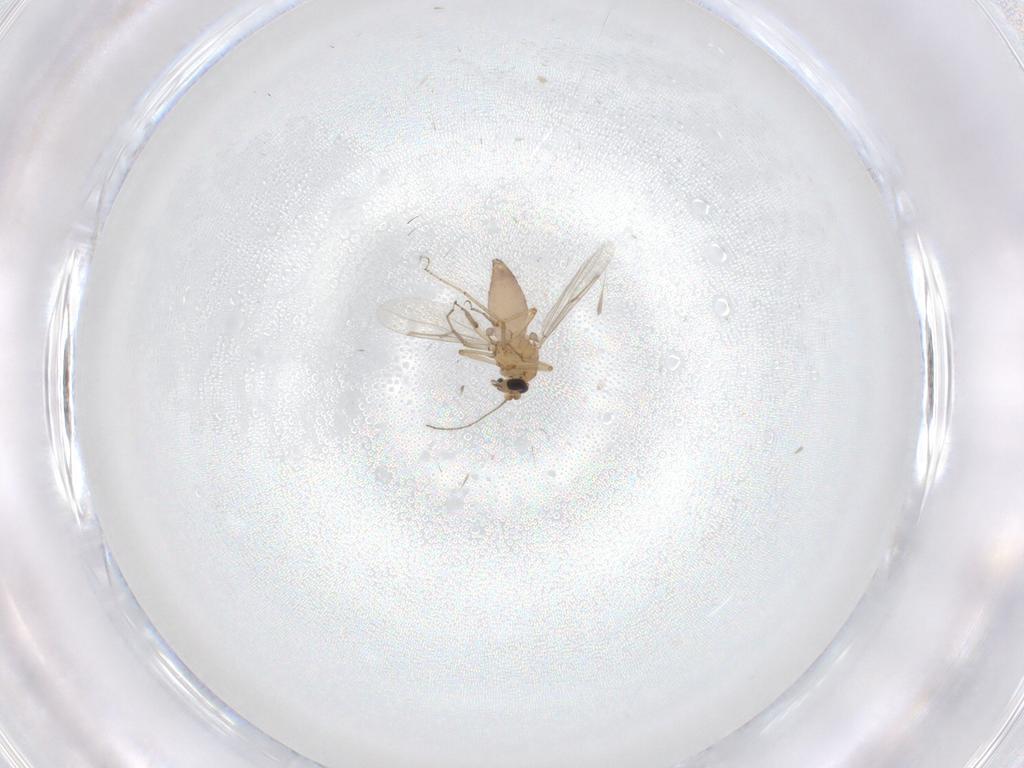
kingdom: Animalia
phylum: Arthropoda
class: Insecta
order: Diptera
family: Ceratopogonidae
